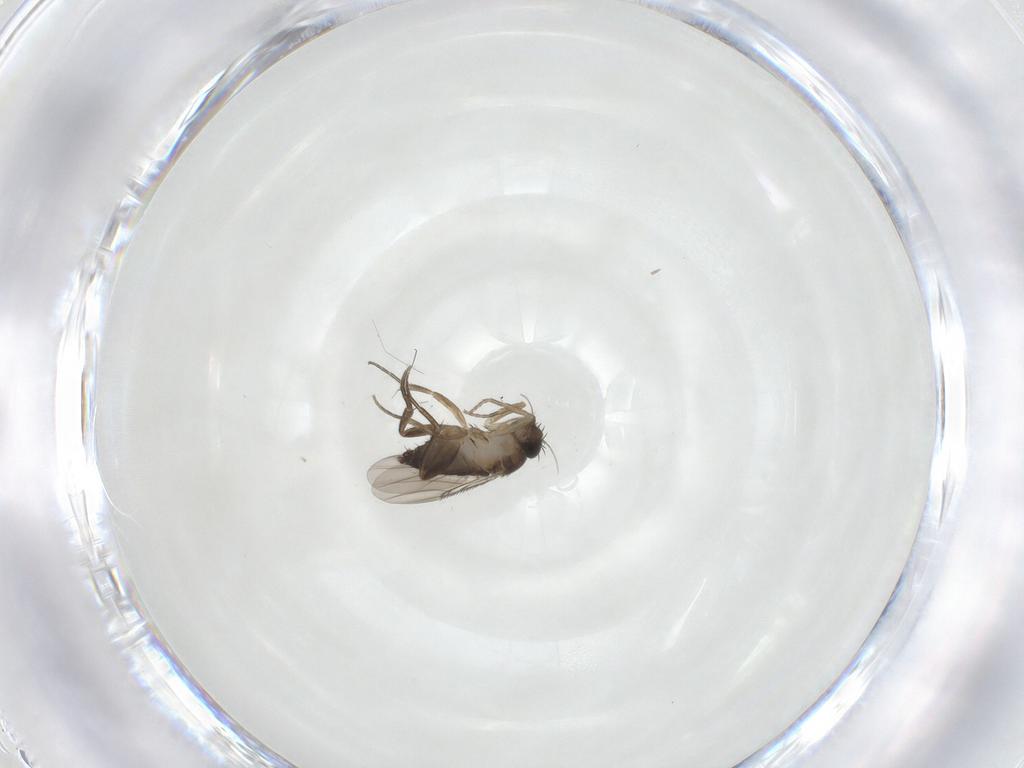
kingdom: Animalia
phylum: Arthropoda
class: Insecta
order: Diptera
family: Phoridae
